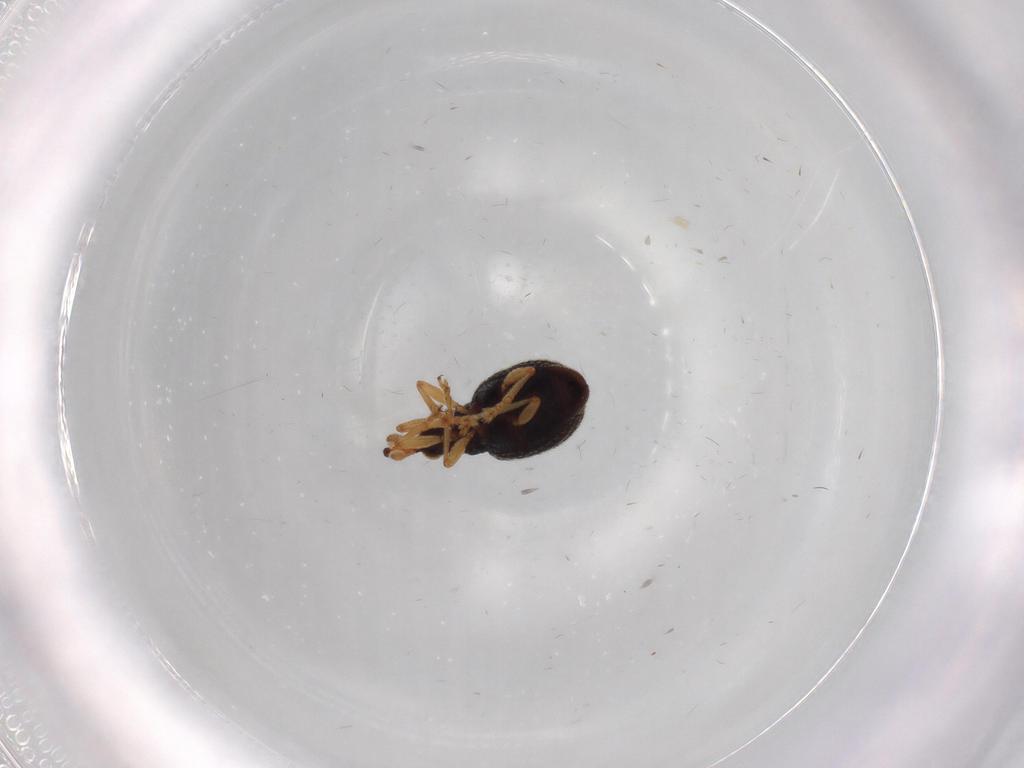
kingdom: Animalia
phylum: Arthropoda
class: Insecta
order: Coleoptera
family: Brentidae
